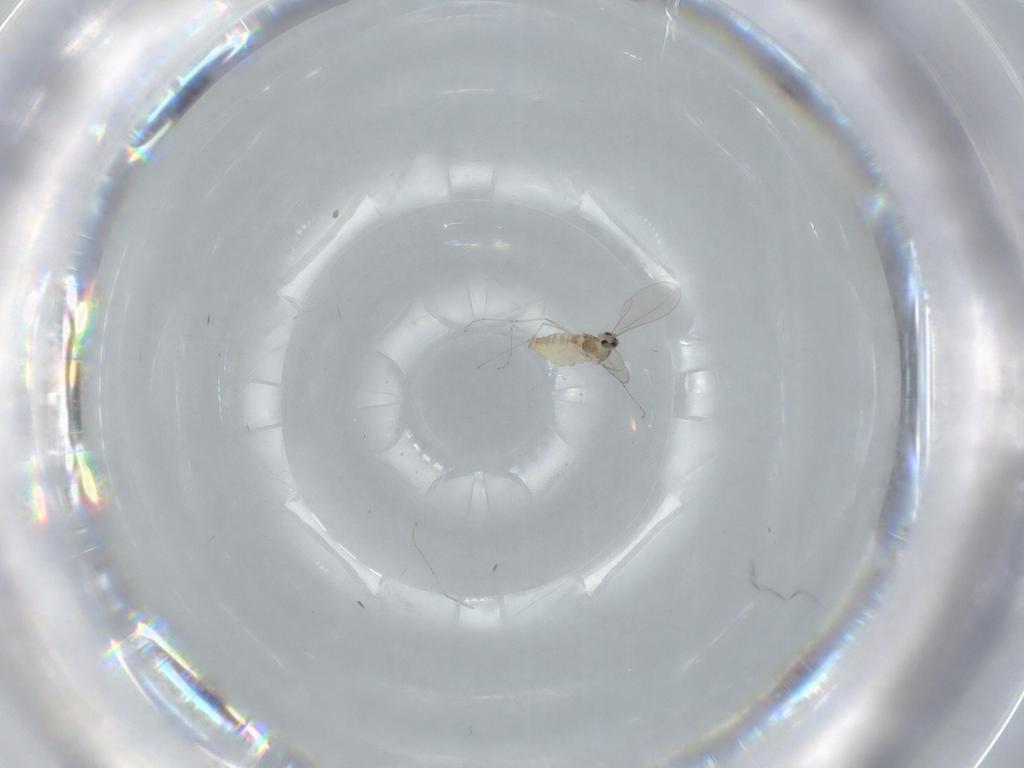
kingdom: Animalia
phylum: Arthropoda
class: Insecta
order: Diptera
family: Cecidomyiidae
